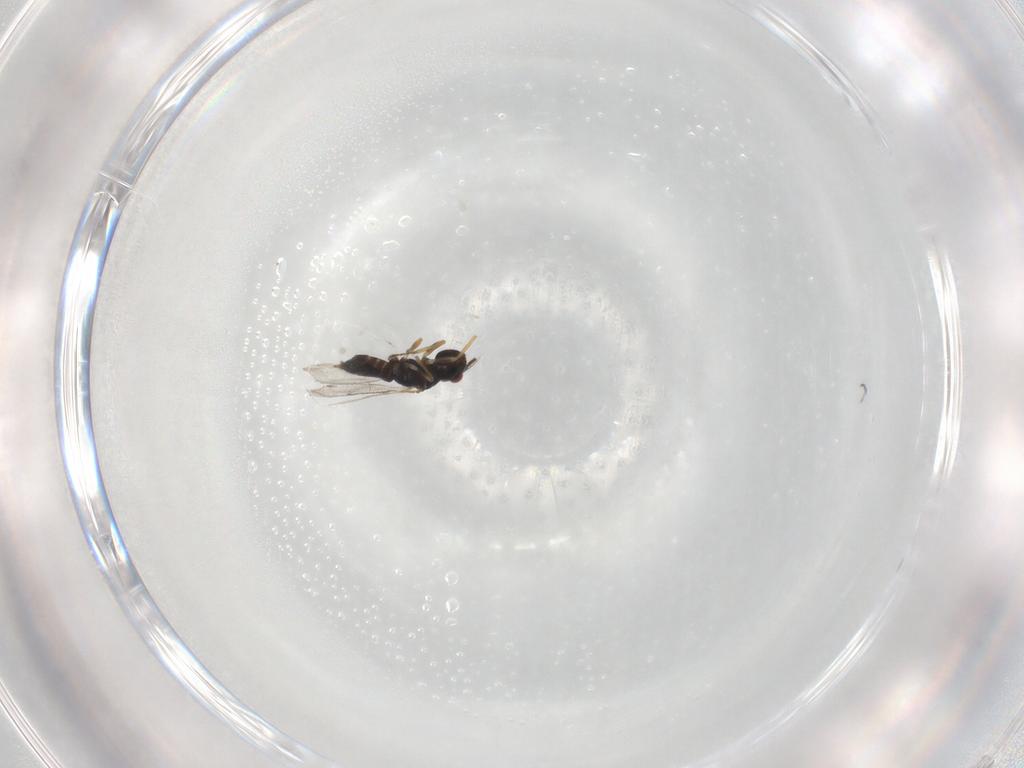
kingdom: Animalia
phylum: Arthropoda
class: Insecta
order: Hymenoptera
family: Eulophidae
